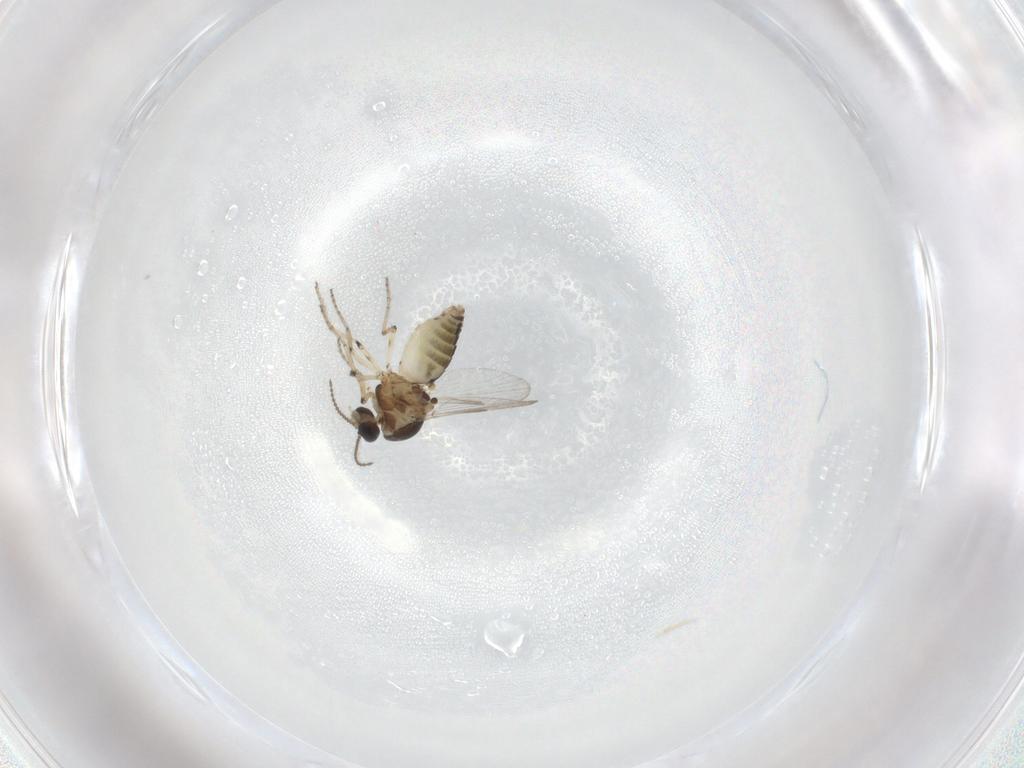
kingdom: Animalia
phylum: Arthropoda
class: Insecta
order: Diptera
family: Ceratopogonidae
